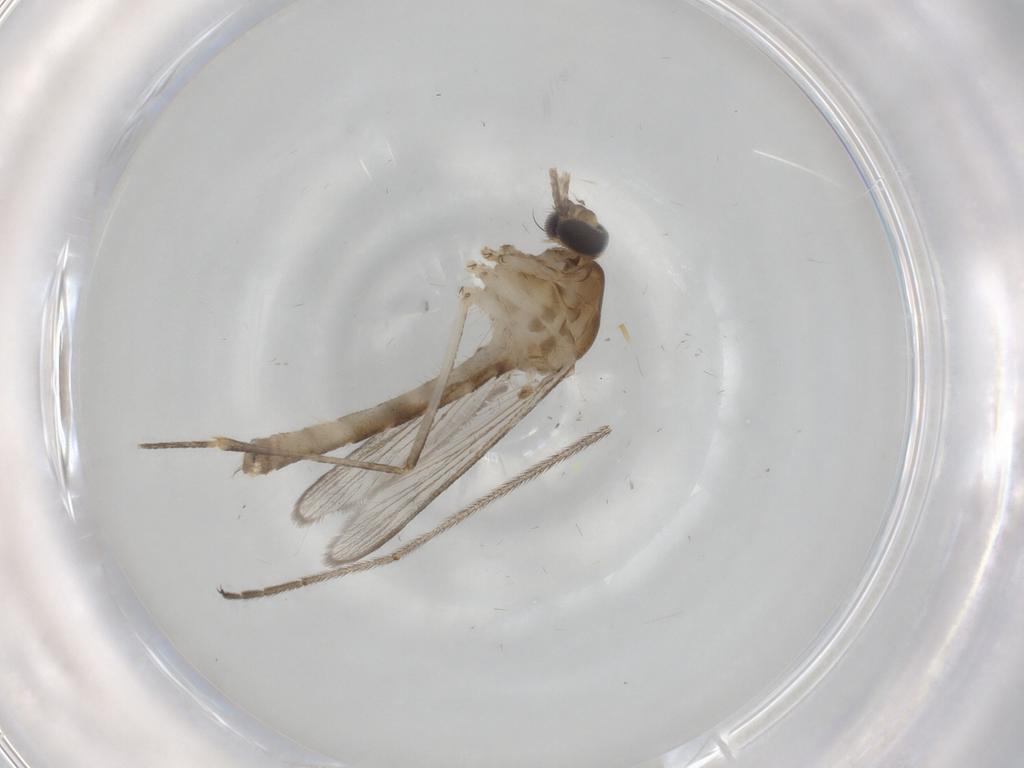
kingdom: Animalia
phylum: Arthropoda
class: Insecta
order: Diptera
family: Cecidomyiidae
